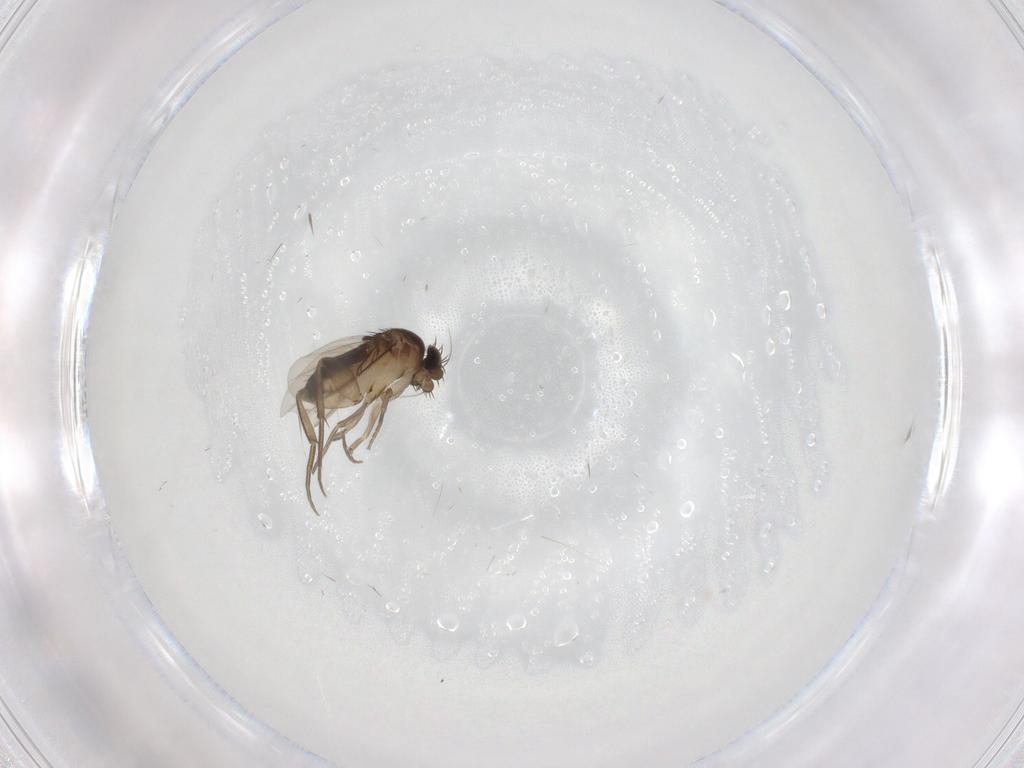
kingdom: Animalia
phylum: Arthropoda
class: Insecta
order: Diptera
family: Phoridae
